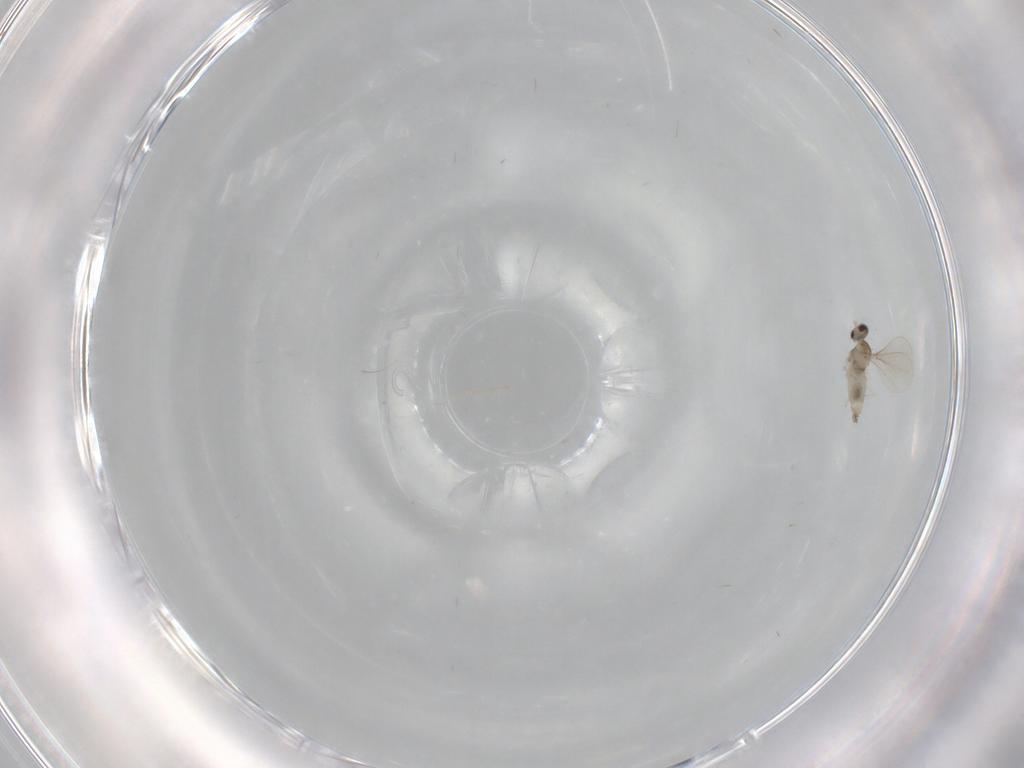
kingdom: Animalia
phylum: Arthropoda
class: Insecta
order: Diptera
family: Cecidomyiidae
